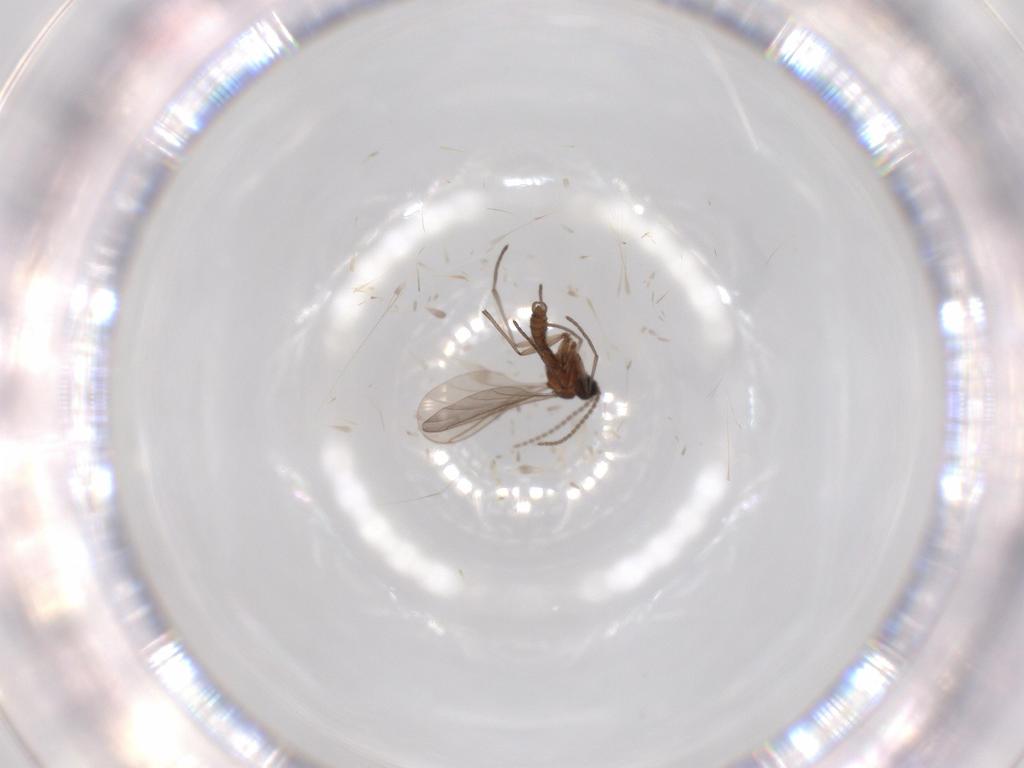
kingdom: Animalia
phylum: Arthropoda
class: Insecta
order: Diptera
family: Sciaridae
